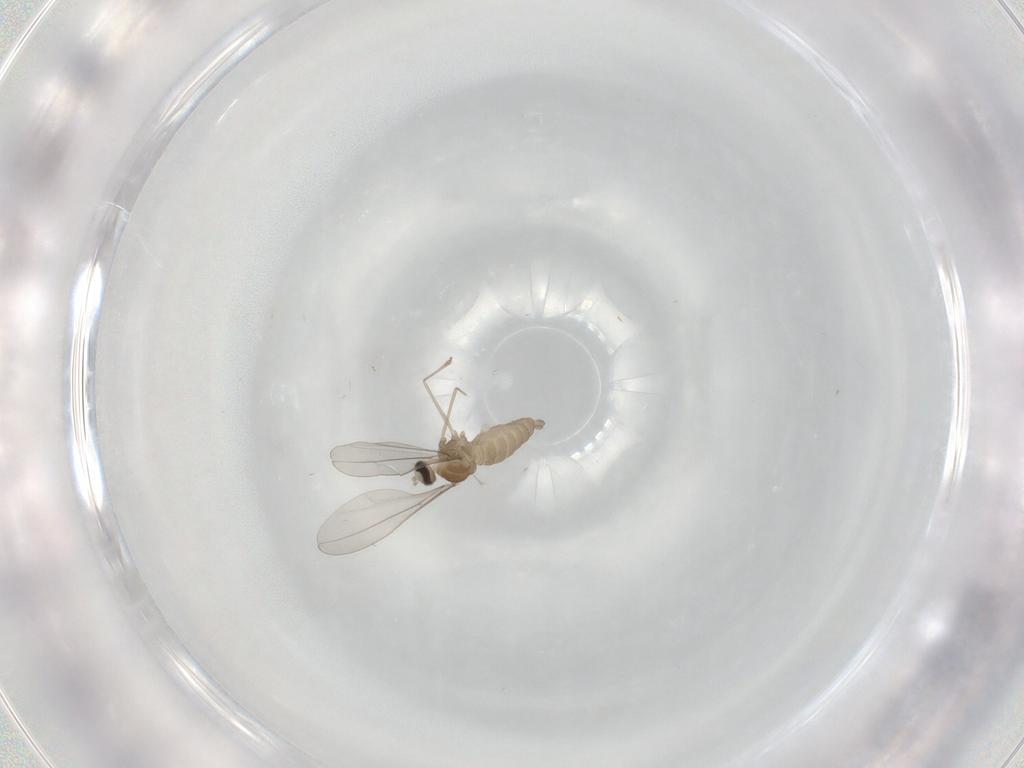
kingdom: Animalia
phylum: Arthropoda
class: Insecta
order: Diptera
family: Cecidomyiidae
